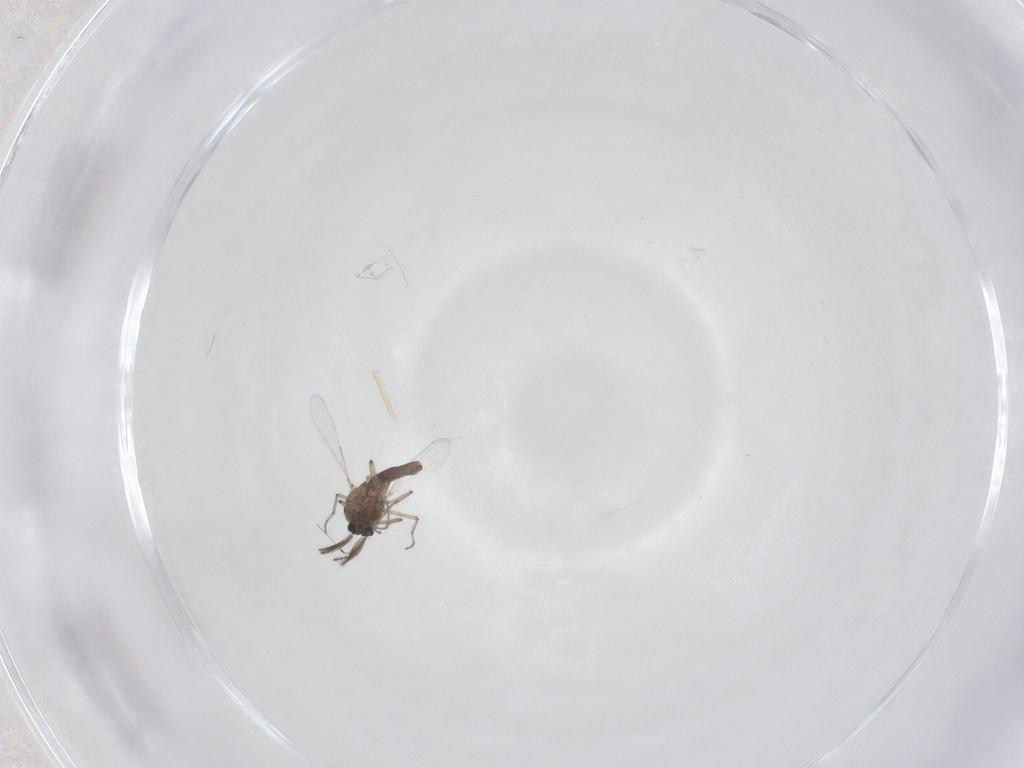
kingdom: Animalia
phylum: Arthropoda
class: Insecta
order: Diptera
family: Ceratopogonidae
